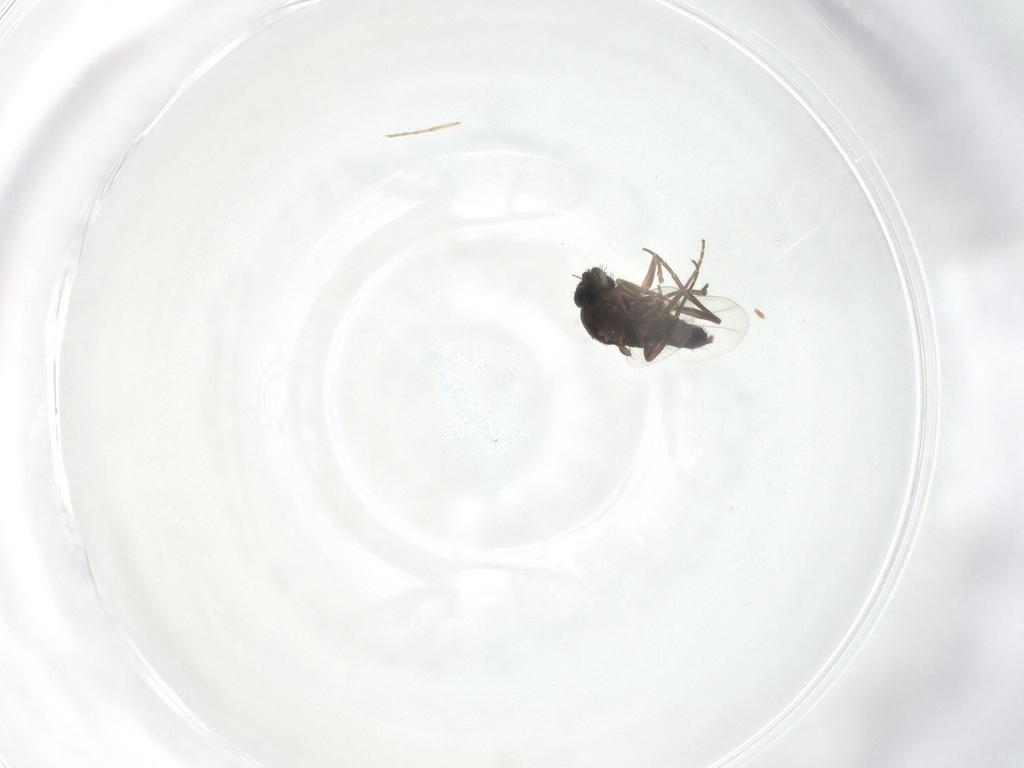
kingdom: Animalia
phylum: Arthropoda
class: Insecta
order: Diptera
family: Phoridae
